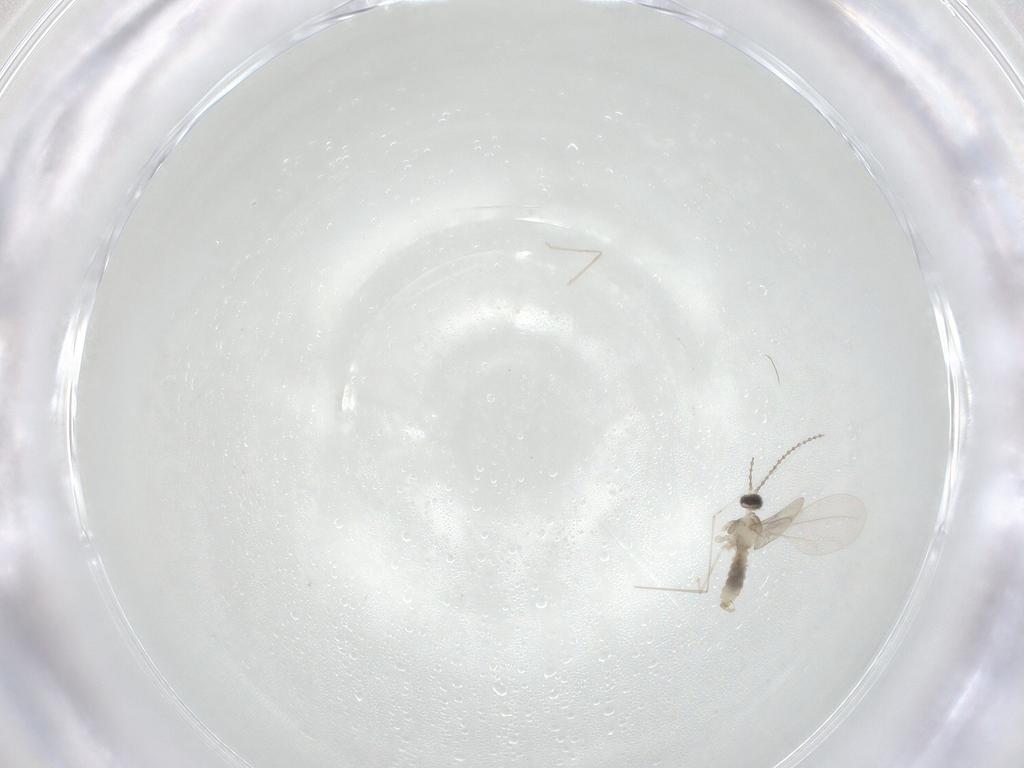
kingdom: Animalia
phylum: Arthropoda
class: Insecta
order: Diptera
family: Cecidomyiidae
